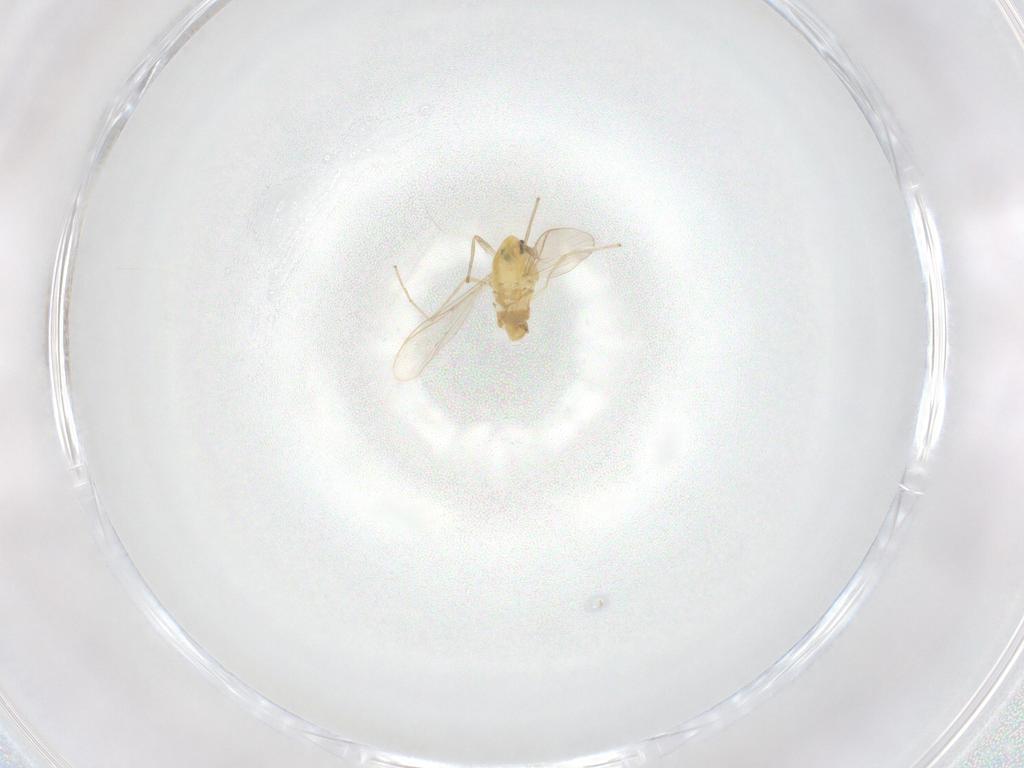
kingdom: Animalia
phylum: Arthropoda
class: Insecta
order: Diptera
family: Chironomidae
